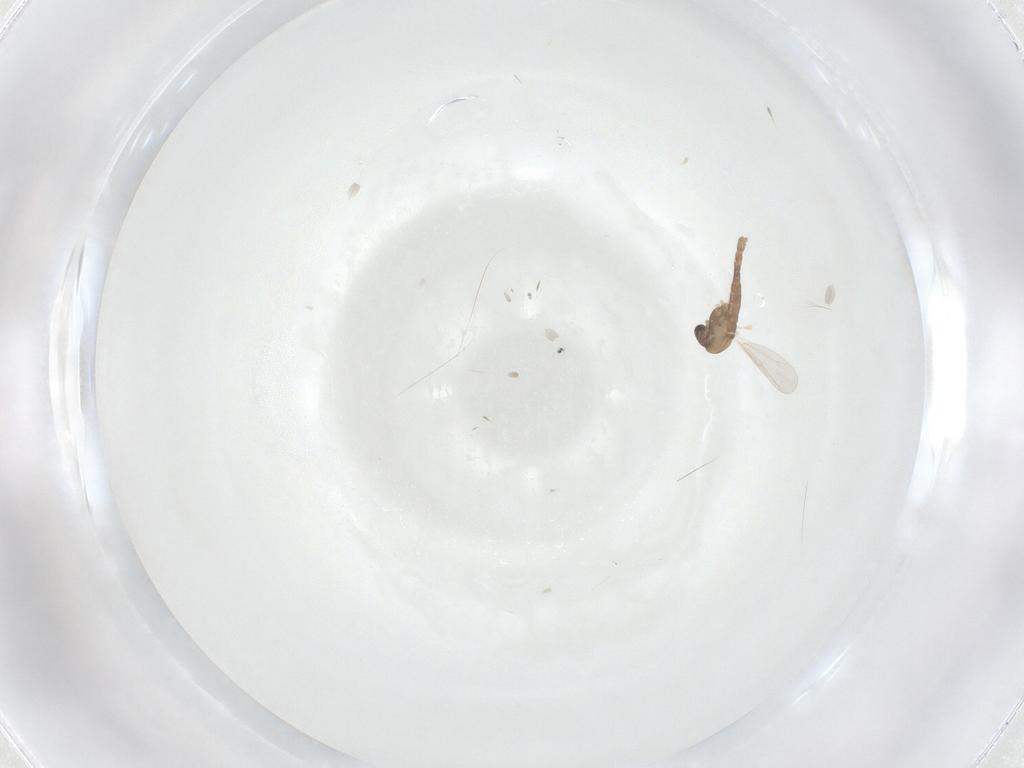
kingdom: Animalia
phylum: Arthropoda
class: Insecta
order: Diptera
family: Chironomidae
